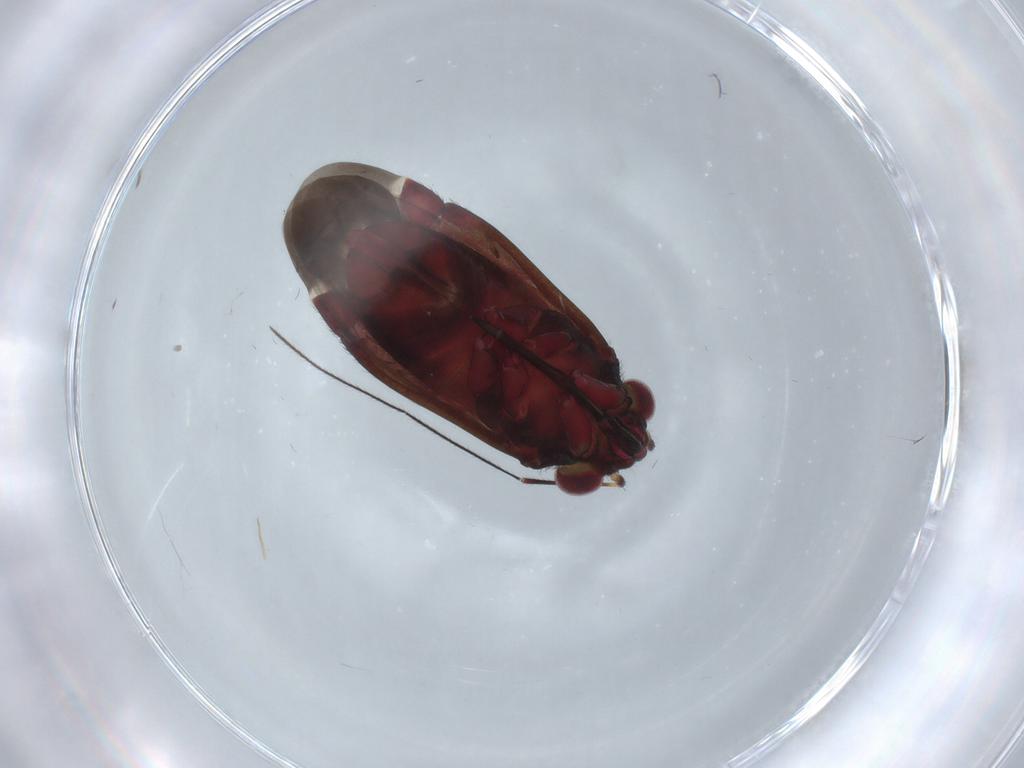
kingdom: Animalia
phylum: Arthropoda
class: Insecta
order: Hemiptera
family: Miridae
